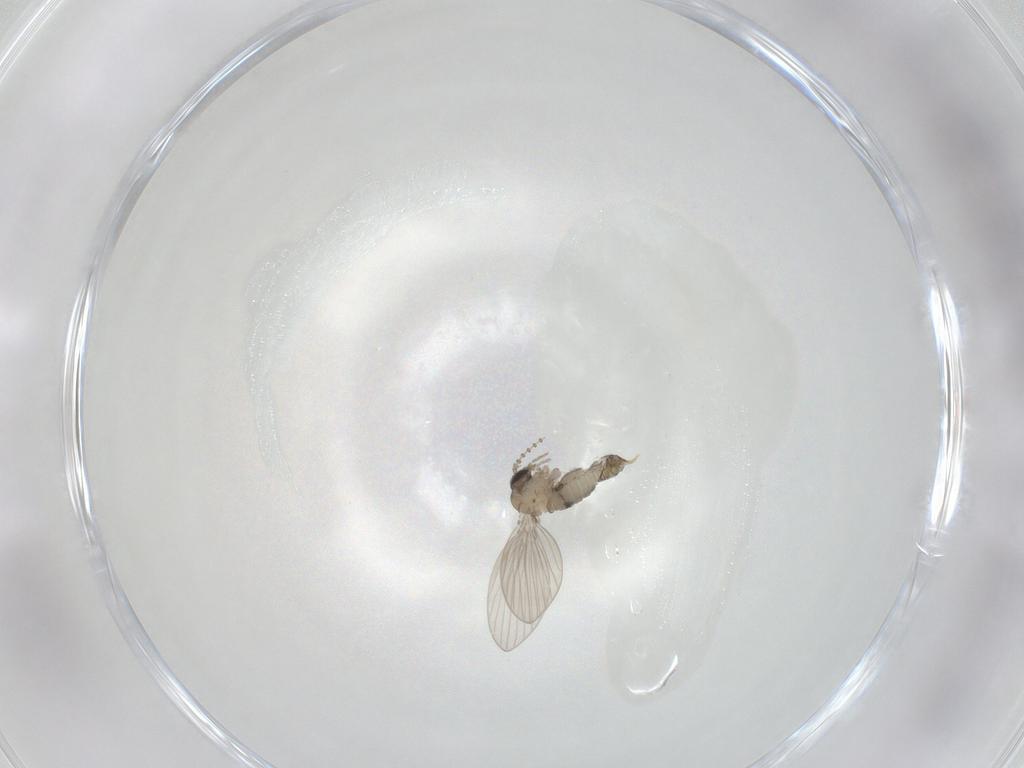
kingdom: Animalia
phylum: Arthropoda
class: Insecta
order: Diptera
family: Psychodidae
